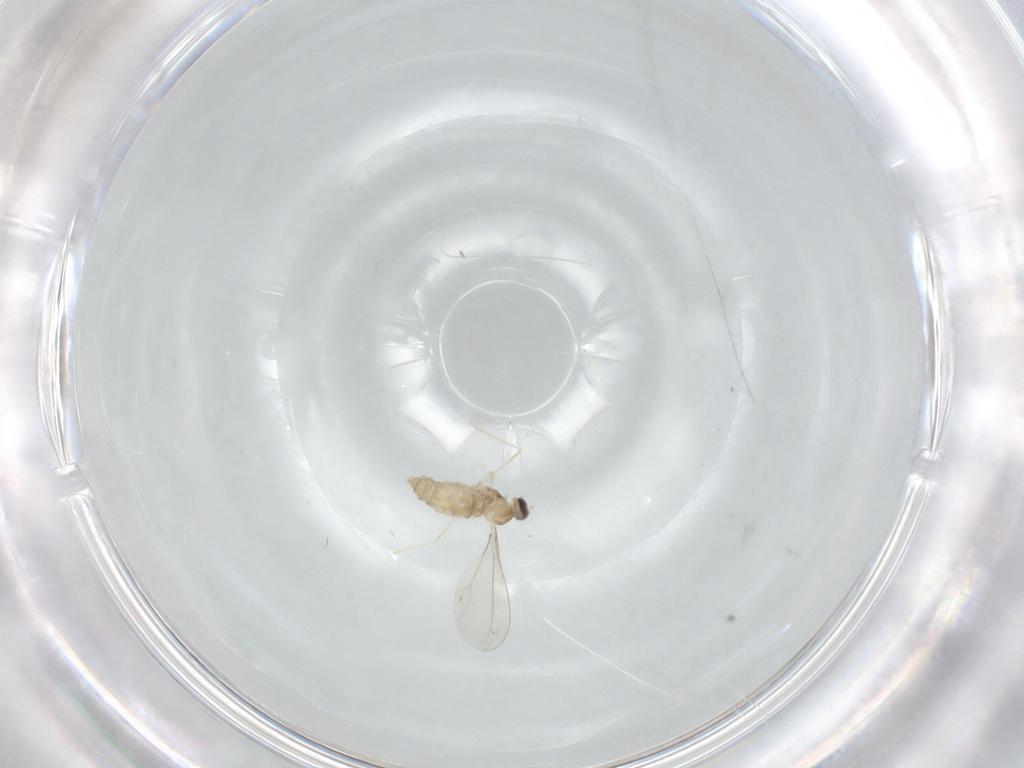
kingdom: Animalia
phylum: Arthropoda
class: Insecta
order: Diptera
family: Cecidomyiidae
